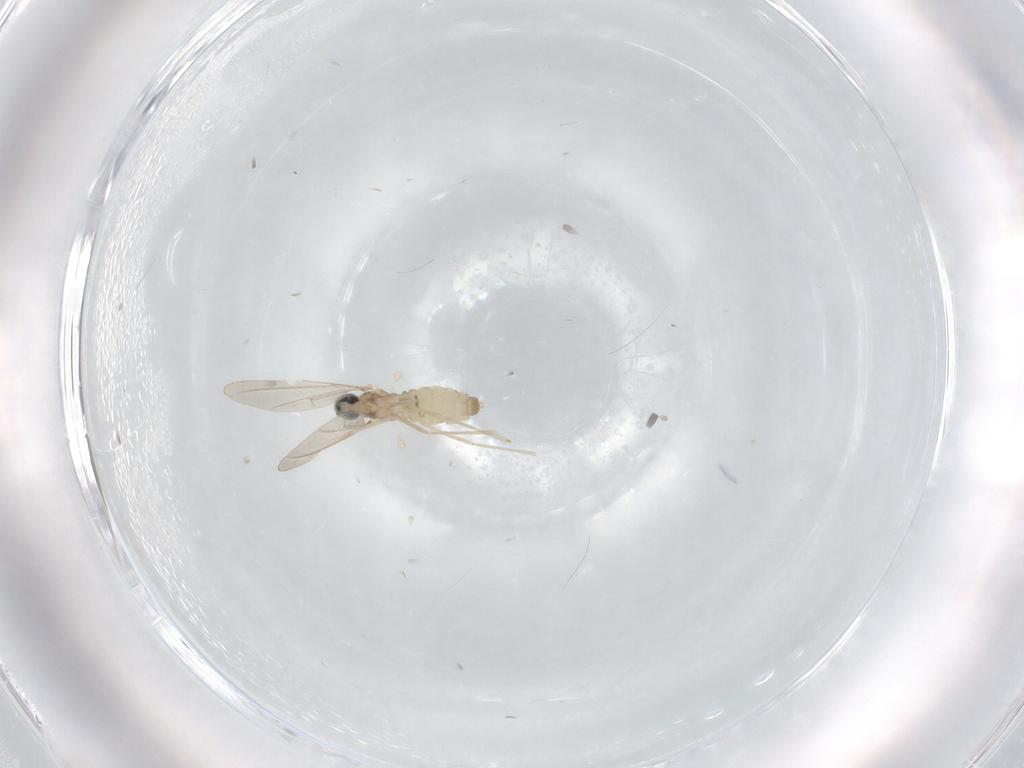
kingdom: Animalia
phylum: Arthropoda
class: Insecta
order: Diptera
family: Cecidomyiidae
